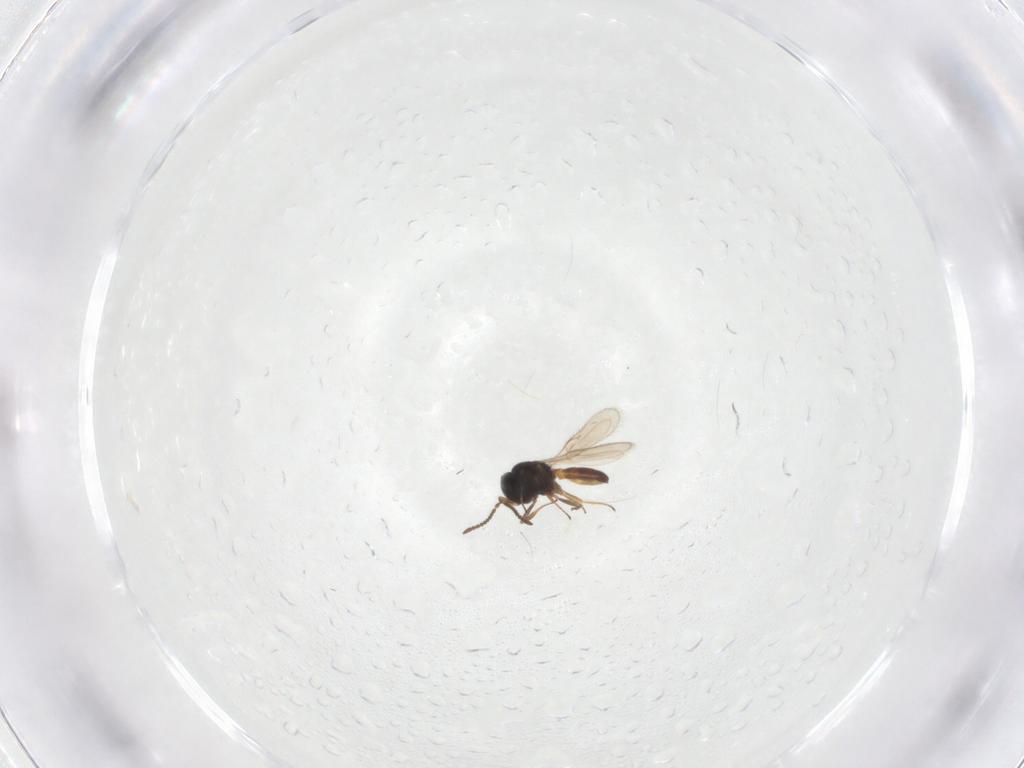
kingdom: Animalia
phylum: Arthropoda
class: Insecta
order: Hymenoptera
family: Scelionidae
